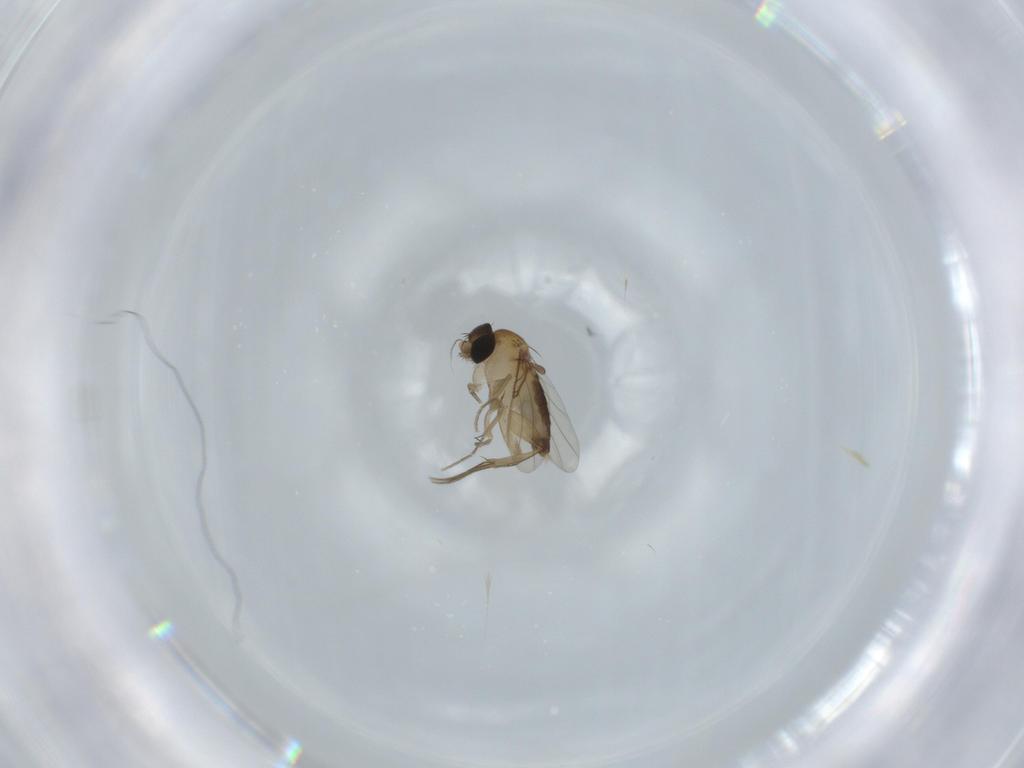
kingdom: Animalia
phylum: Arthropoda
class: Insecta
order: Diptera
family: Phoridae
